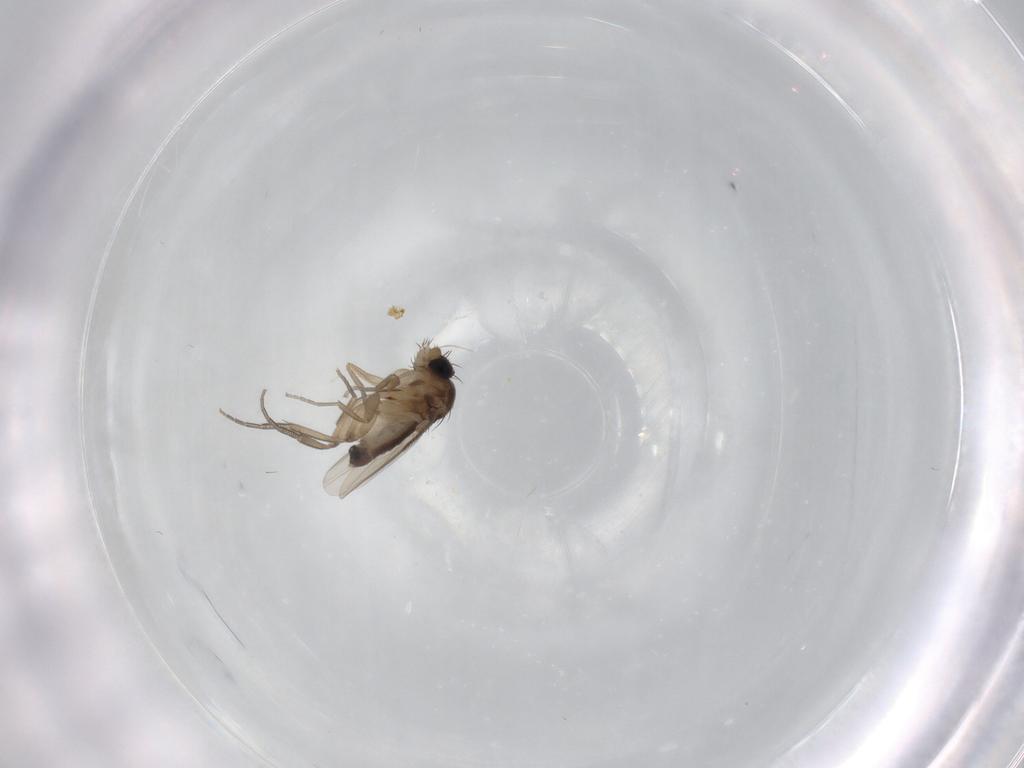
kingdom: Animalia
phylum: Arthropoda
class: Insecta
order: Diptera
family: Phoridae
